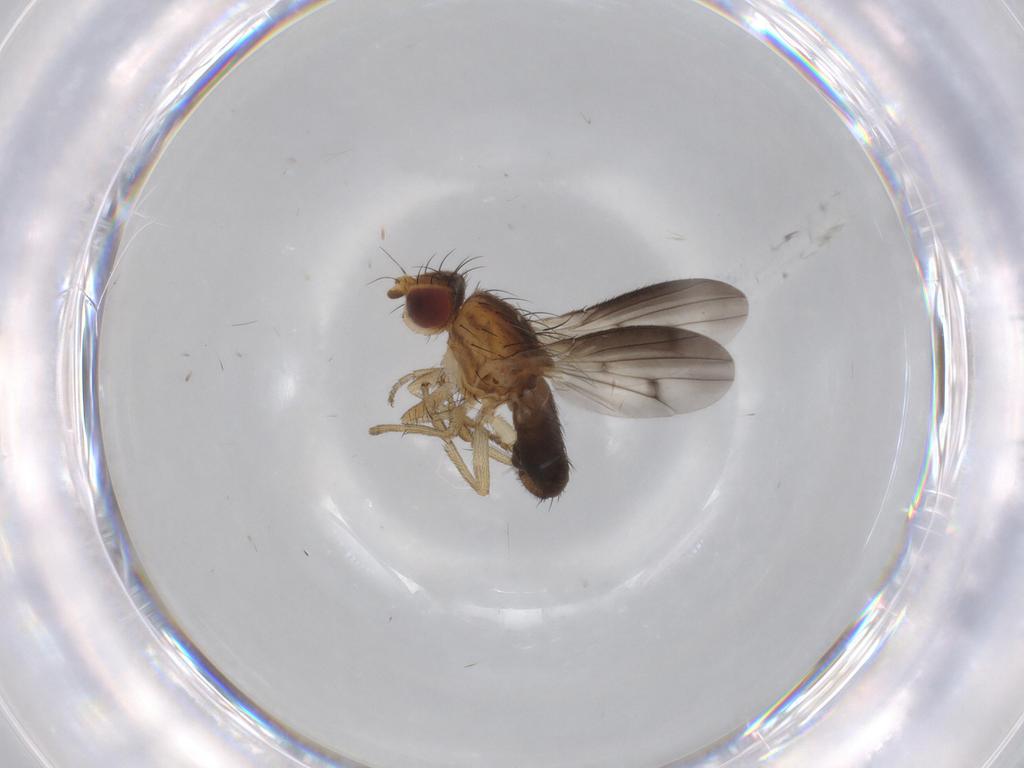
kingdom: Animalia
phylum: Arthropoda
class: Insecta
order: Diptera
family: Heleomyzidae
